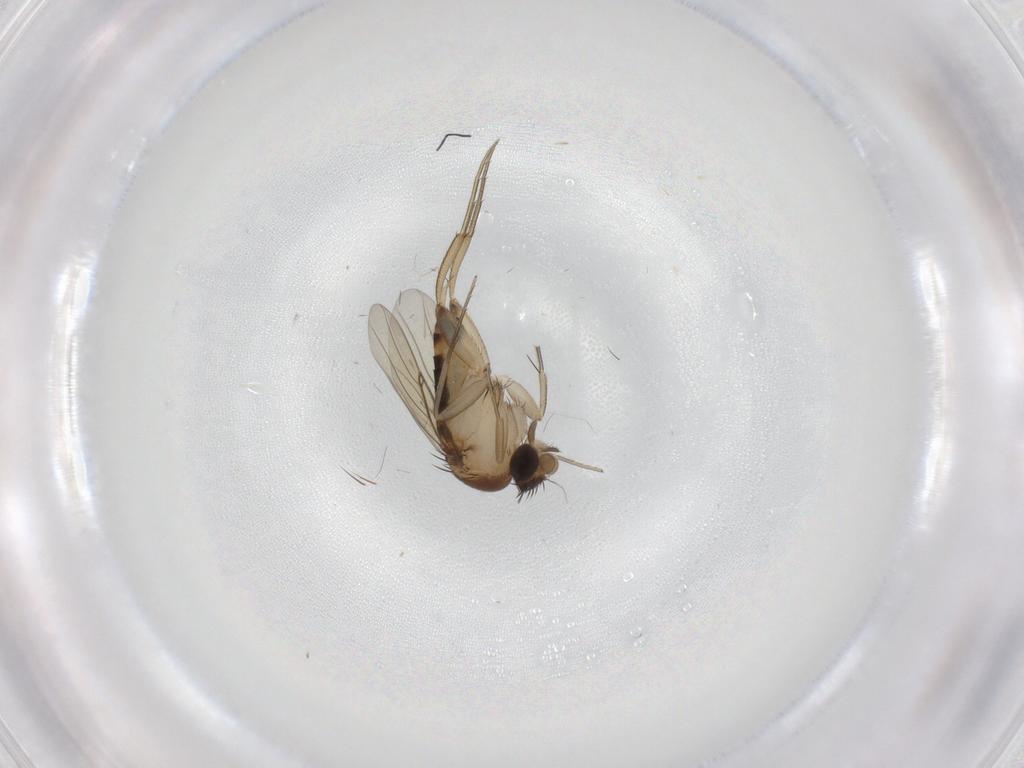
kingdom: Animalia
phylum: Arthropoda
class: Insecta
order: Diptera
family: Phoridae
